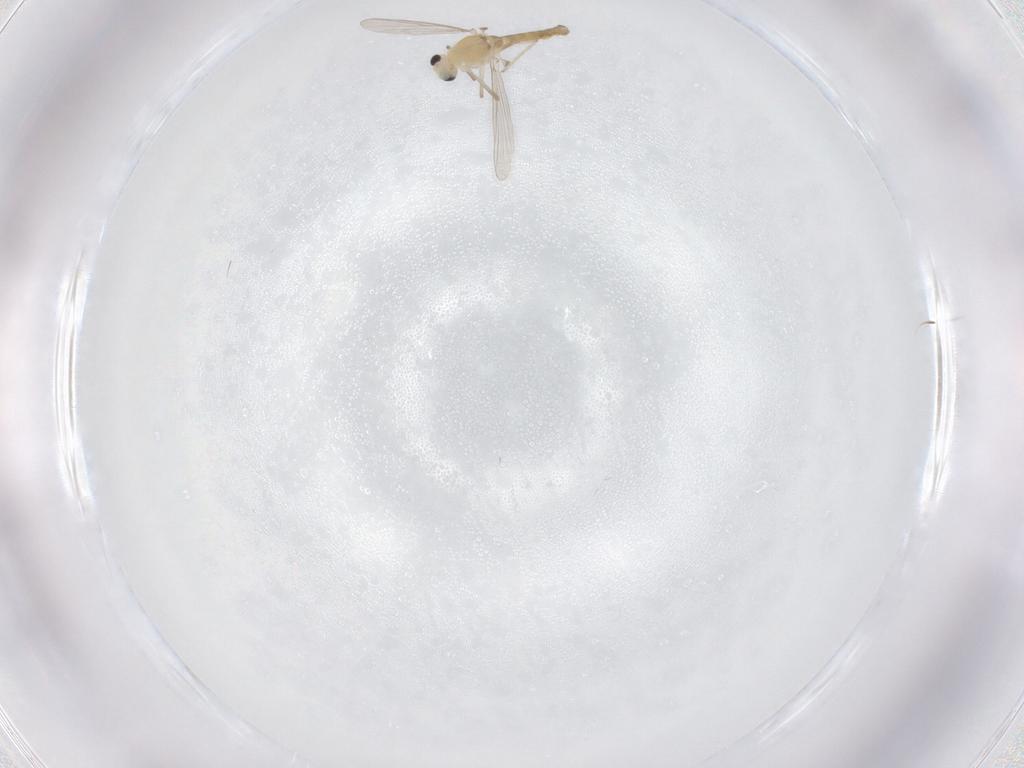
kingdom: Animalia
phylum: Arthropoda
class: Insecta
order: Diptera
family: Chironomidae
